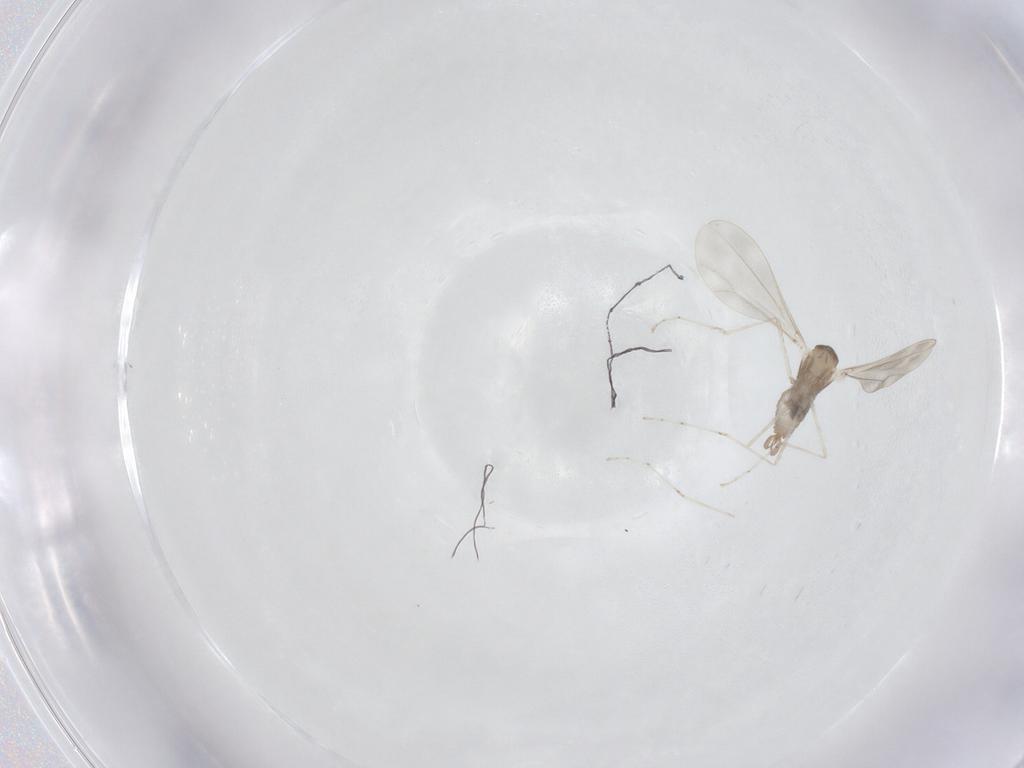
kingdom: Animalia
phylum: Arthropoda
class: Insecta
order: Diptera
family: Cecidomyiidae
